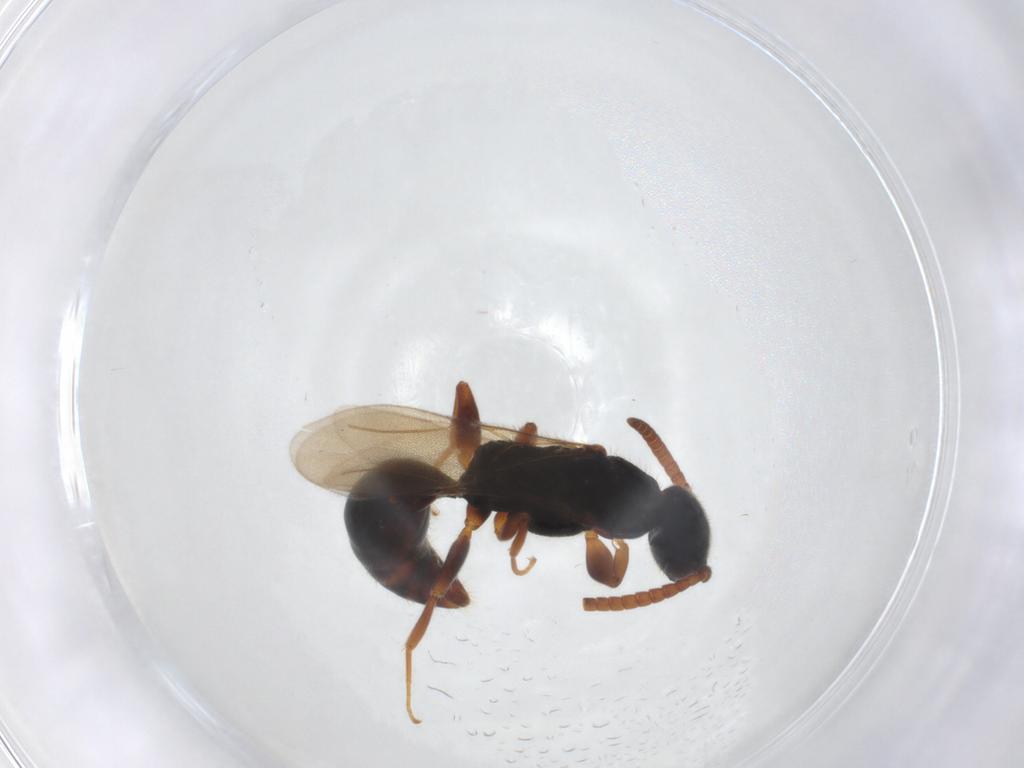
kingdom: Animalia
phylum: Arthropoda
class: Insecta
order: Hymenoptera
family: Bethylidae
